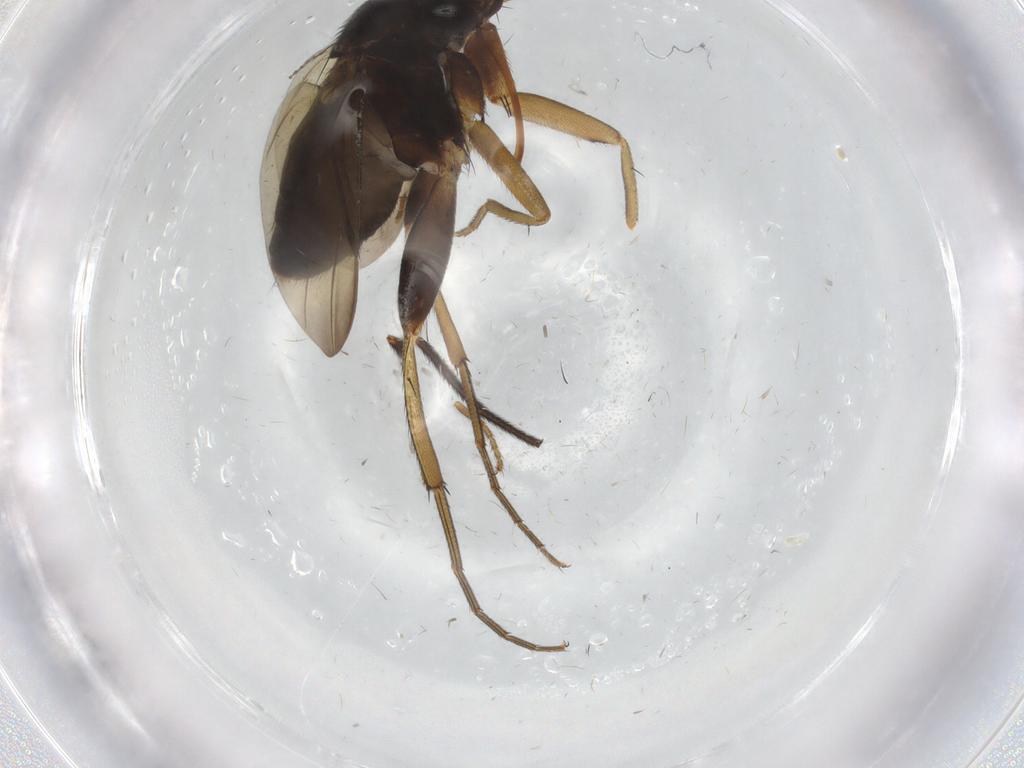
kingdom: Animalia
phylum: Arthropoda
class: Insecta
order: Diptera
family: Phoridae
